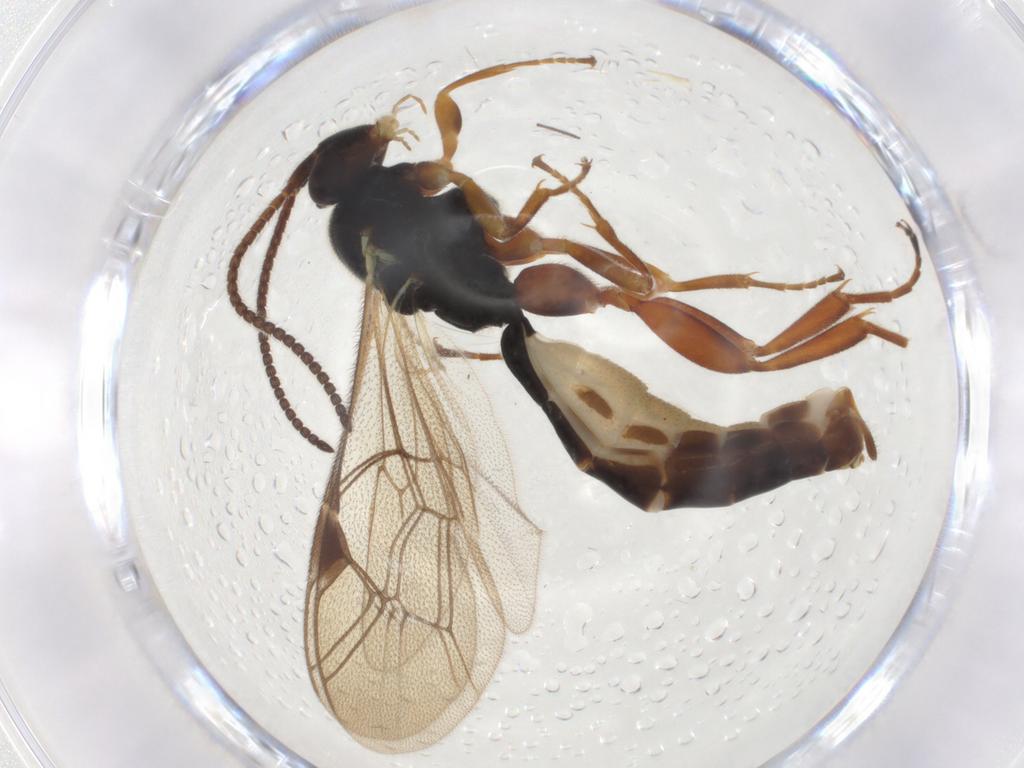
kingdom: Animalia
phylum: Arthropoda
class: Insecta
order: Hymenoptera
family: Ichneumonidae
